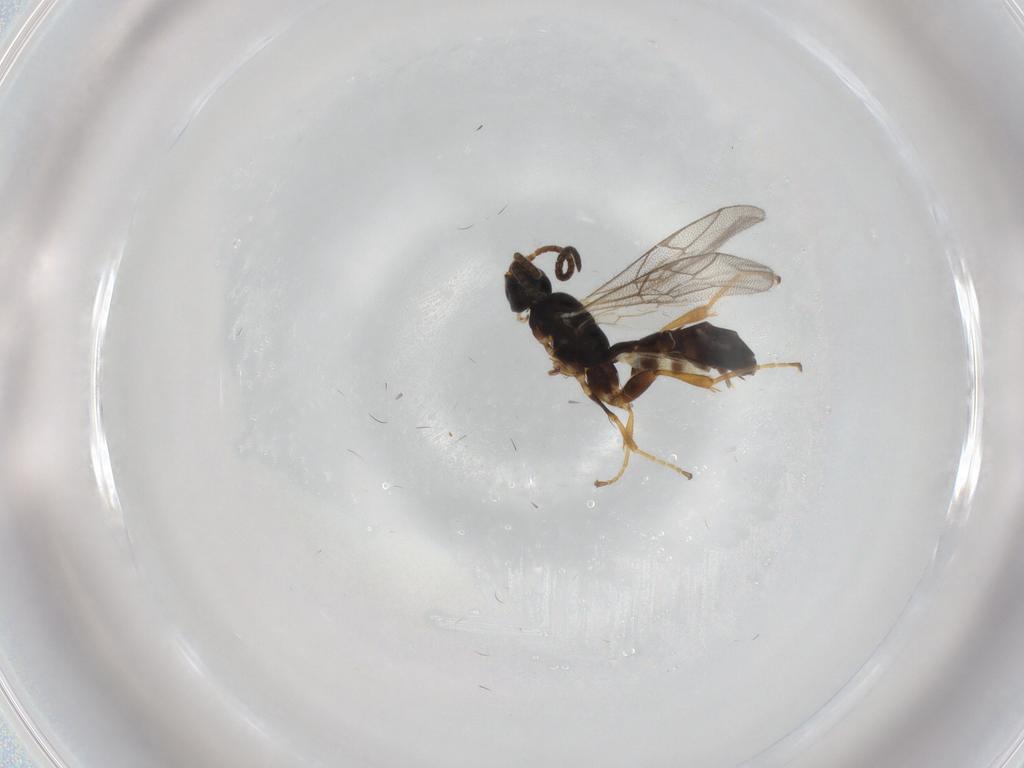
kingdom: Animalia
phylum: Arthropoda
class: Insecta
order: Hymenoptera
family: Ichneumonidae
